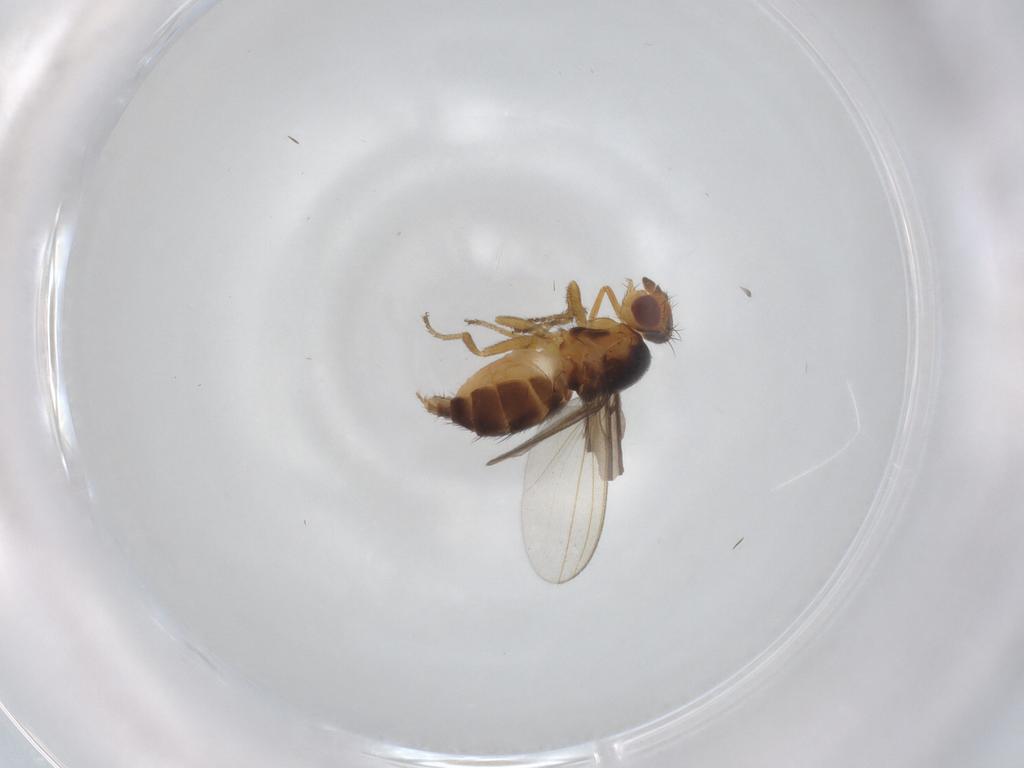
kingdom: Animalia
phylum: Arthropoda
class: Insecta
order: Diptera
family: Milichiidae
